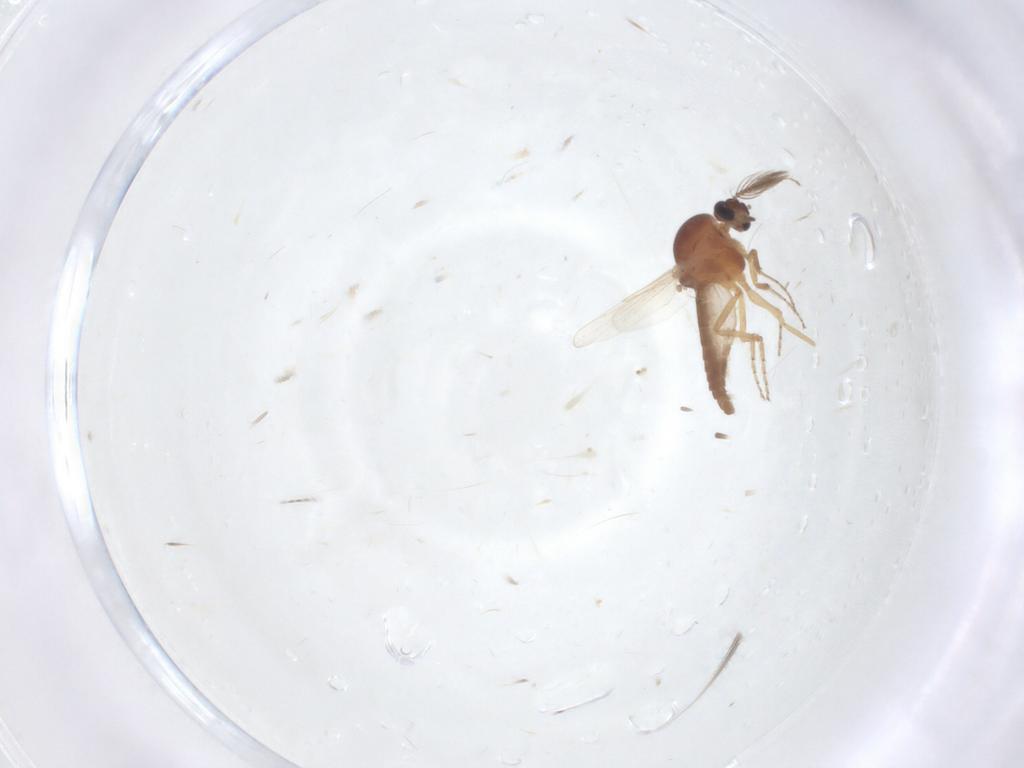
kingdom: Animalia
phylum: Arthropoda
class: Insecta
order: Diptera
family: Ceratopogonidae
